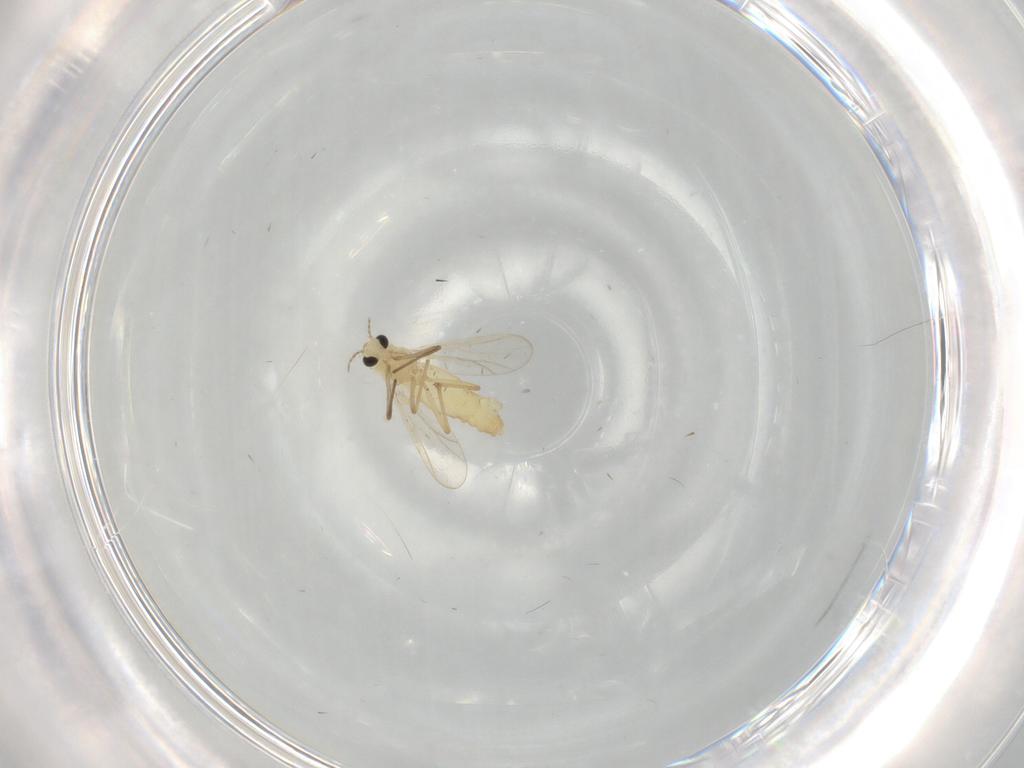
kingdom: Animalia
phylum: Arthropoda
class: Insecta
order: Diptera
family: Chironomidae
